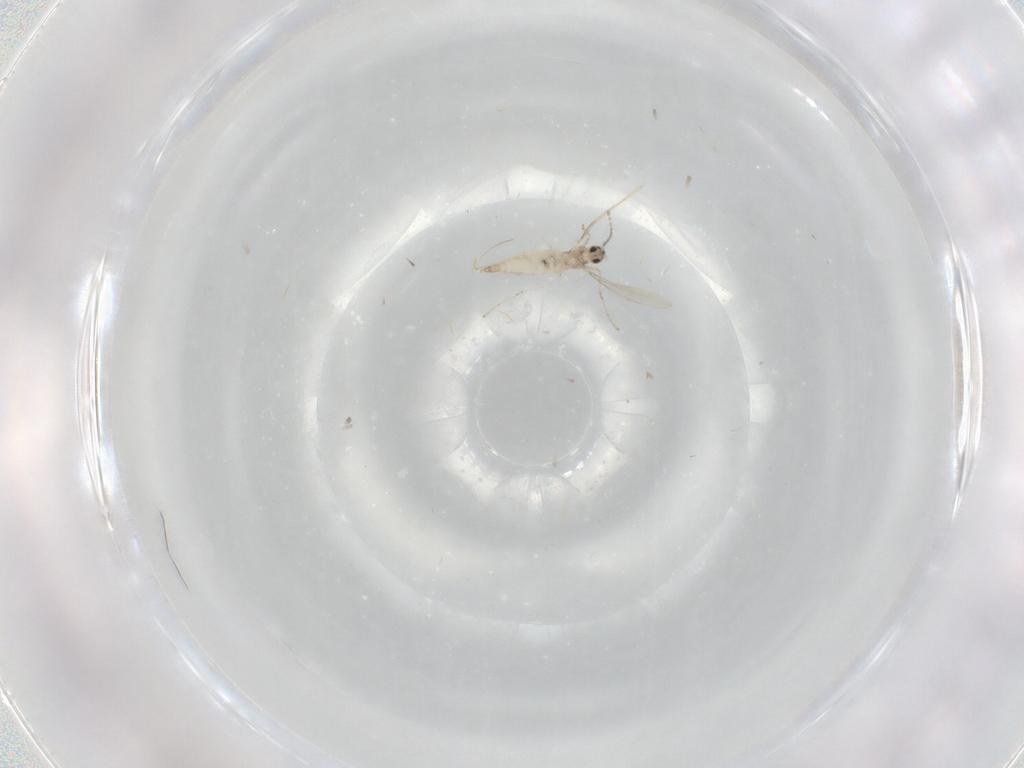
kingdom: Animalia
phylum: Arthropoda
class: Insecta
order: Diptera
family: Cecidomyiidae
